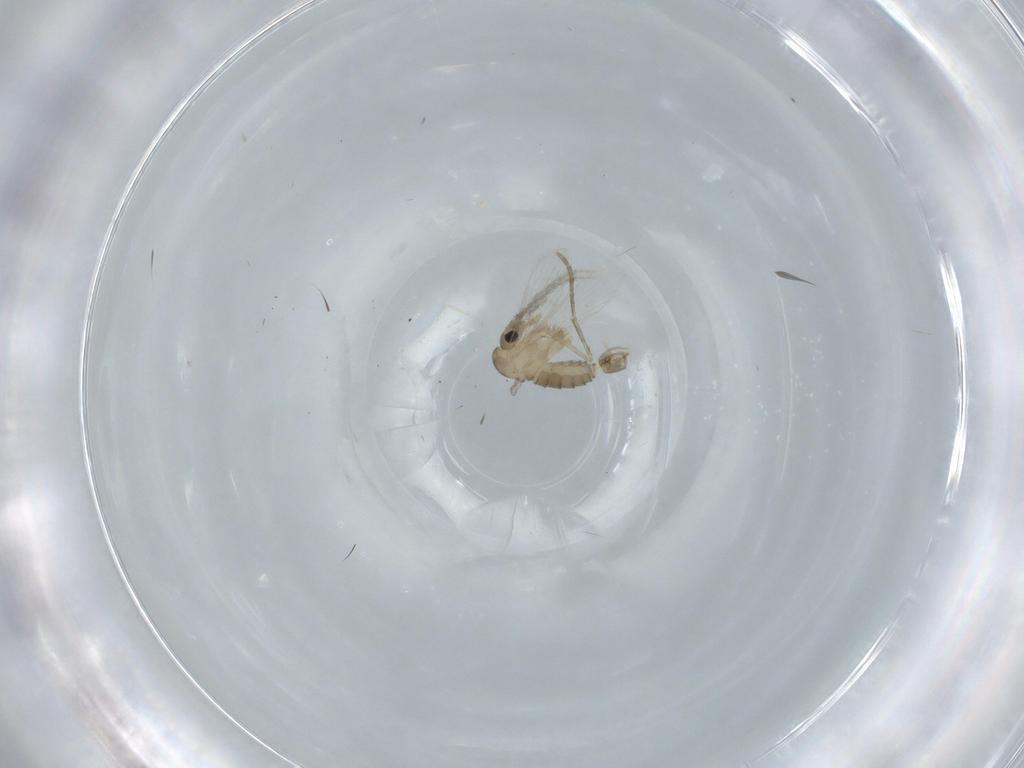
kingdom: Animalia
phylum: Arthropoda
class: Insecta
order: Diptera
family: Psychodidae
